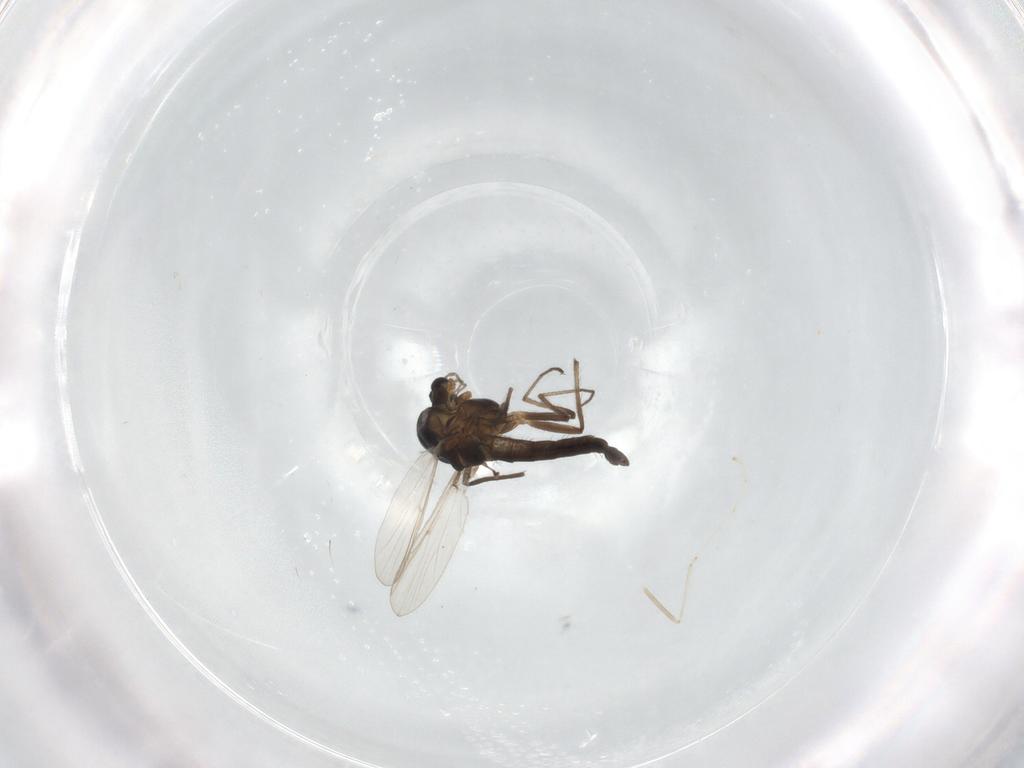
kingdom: Animalia
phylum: Arthropoda
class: Insecta
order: Diptera
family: Chironomidae
